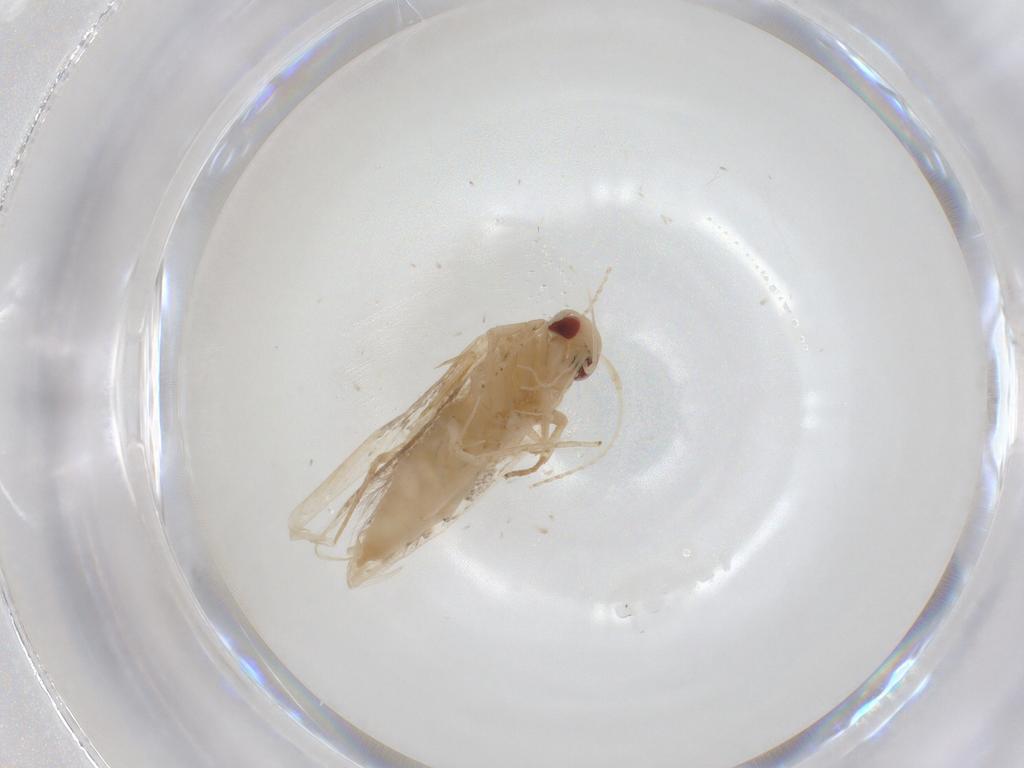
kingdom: Animalia
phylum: Arthropoda
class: Insecta
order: Lepidoptera
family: Cosmopterigidae
